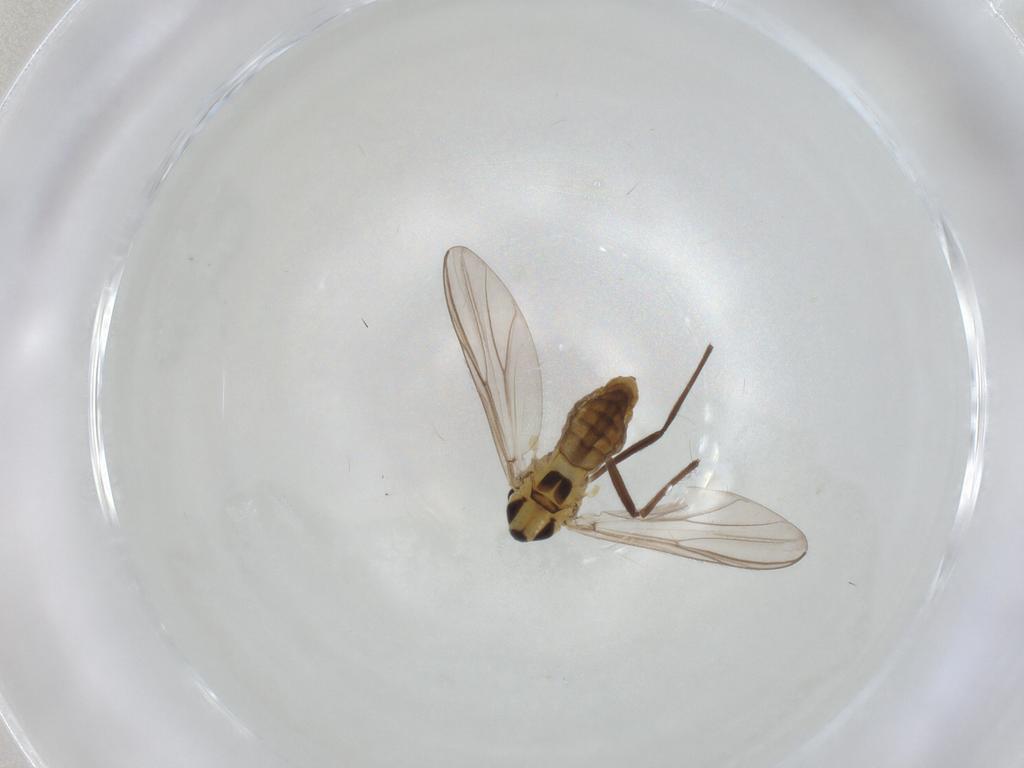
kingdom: Animalia
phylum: Arthropoda
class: Insecta
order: Diptera
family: Chironomidae
